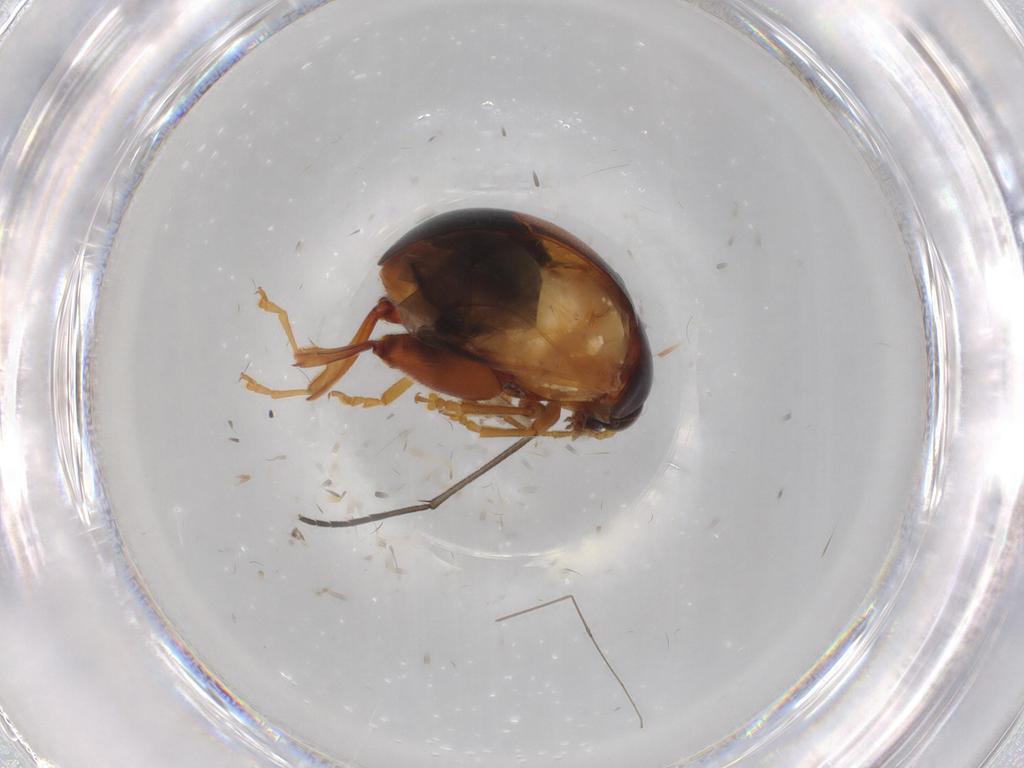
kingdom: Animalia
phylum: Arthropoda
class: Insecta
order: Coleoptera
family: Chrysomelidae
